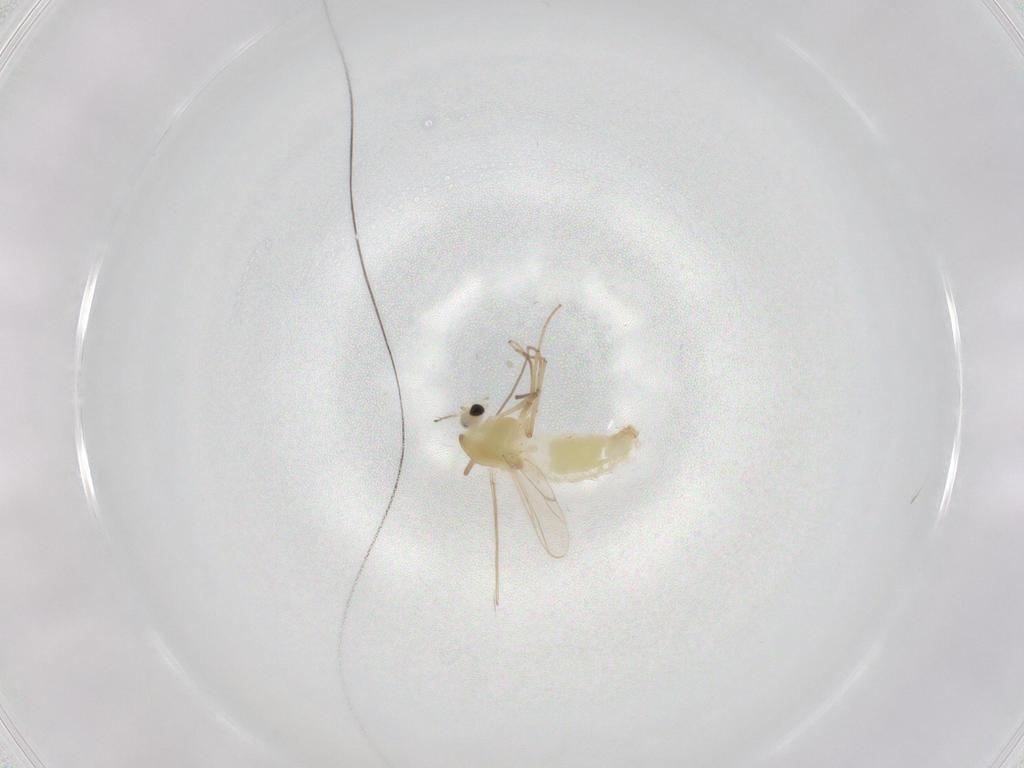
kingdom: Animalia
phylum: Arthropoda
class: Insecta
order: Diptera
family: Chironomidae
